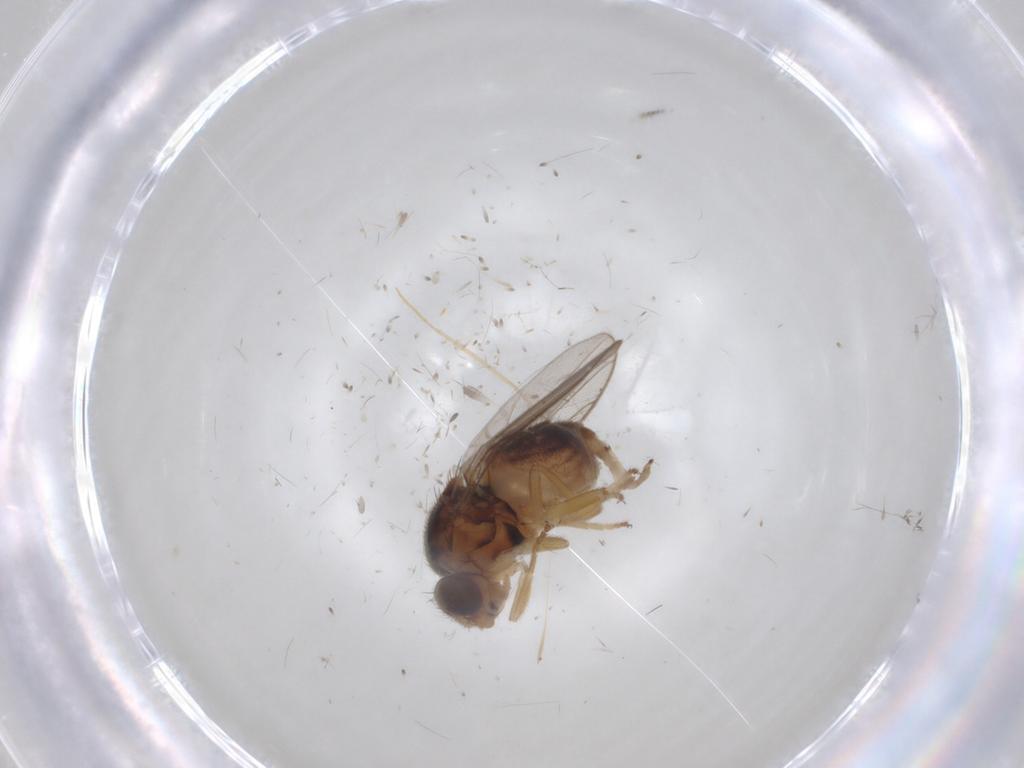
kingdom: Animalia
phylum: Arthropoda
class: Insecta
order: Diptera
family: Chloropidae
